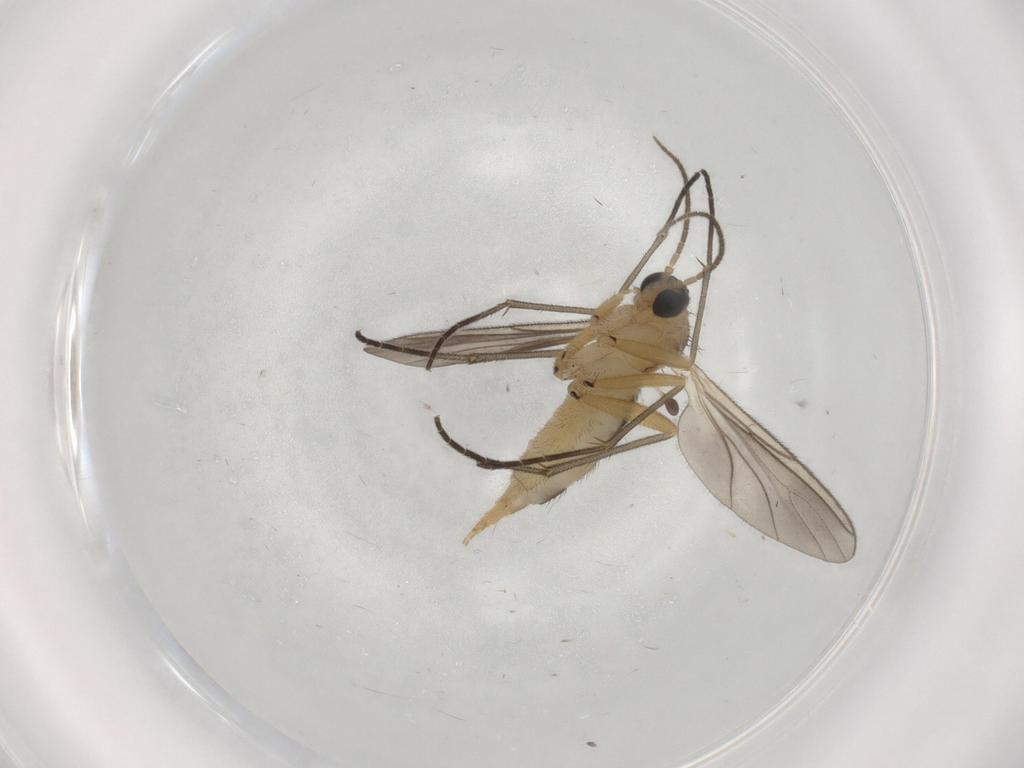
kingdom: Animalia
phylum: Arthropoda
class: Insecta
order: Diptera
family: Sciaridae
